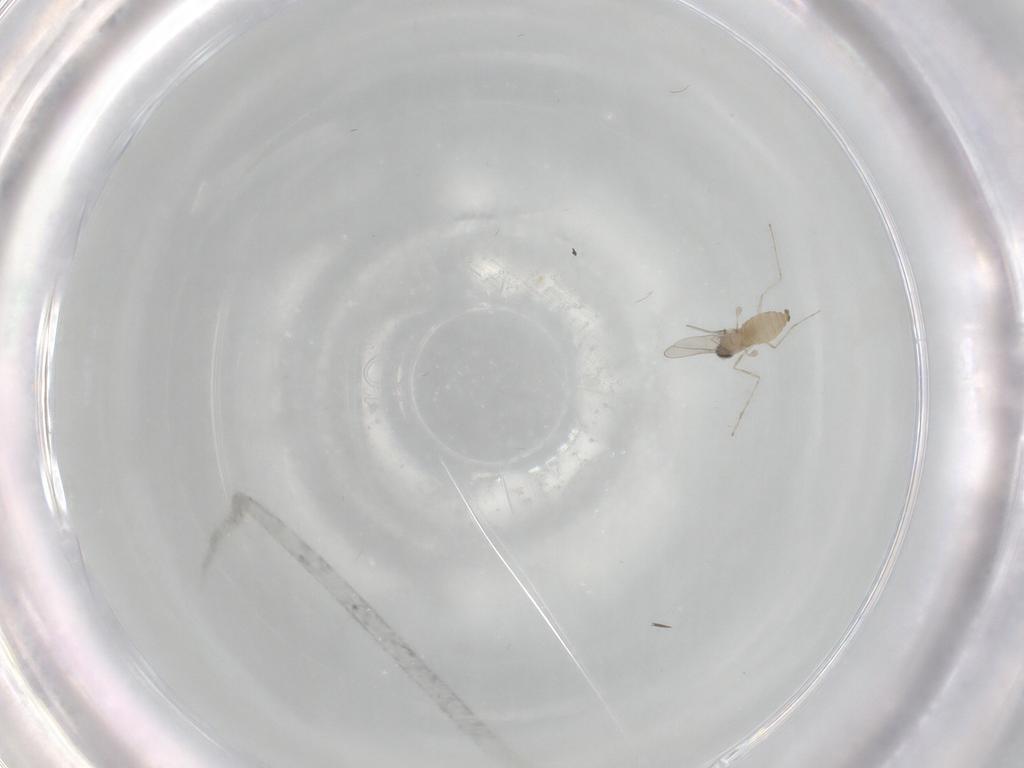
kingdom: Animalia
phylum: Arthropoda
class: Insecta
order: Diptera
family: Cecidomyiidae
